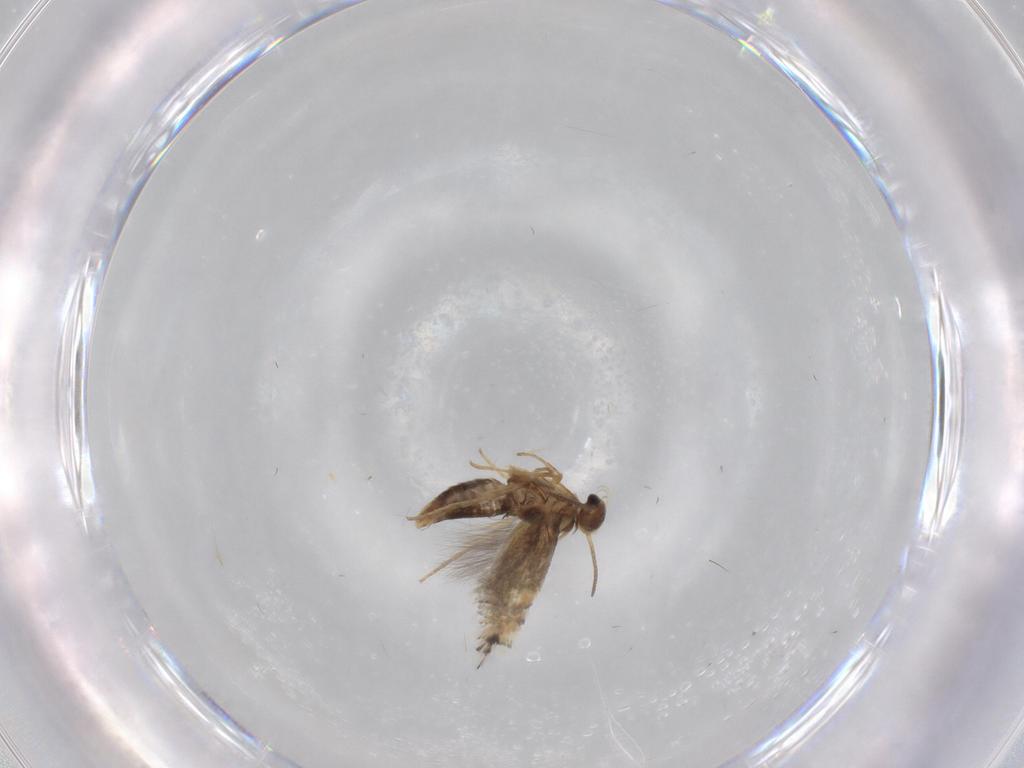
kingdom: Animalia
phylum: Arthropoda
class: Insecta
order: Lepidoptera
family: Heliozelidae
